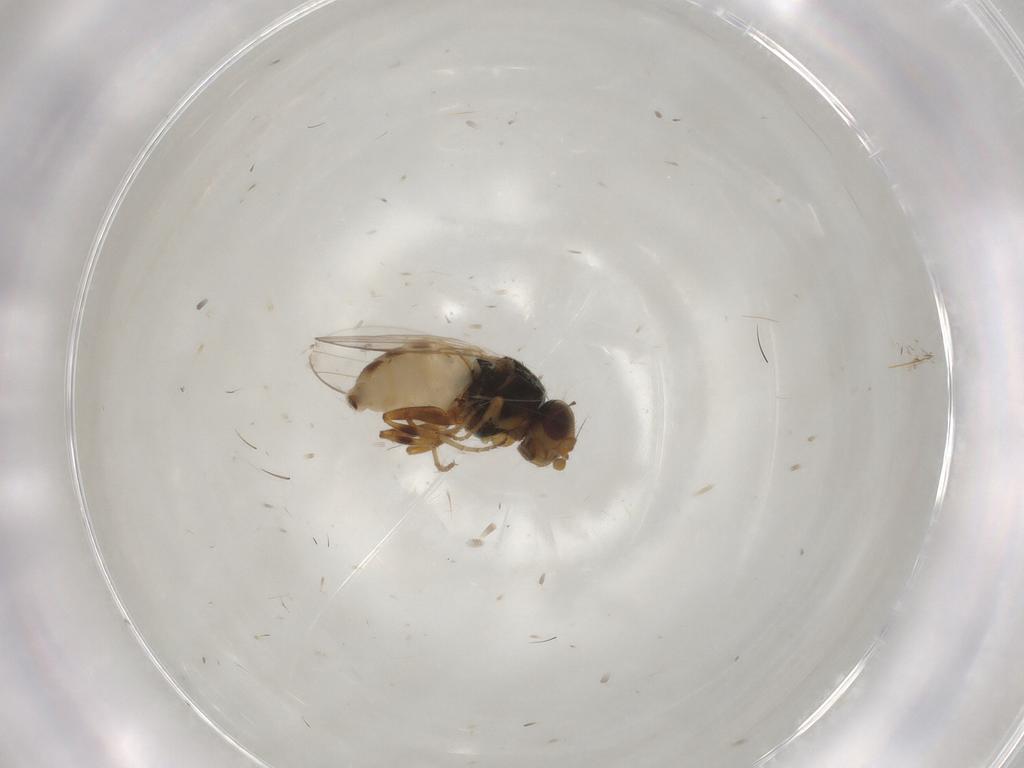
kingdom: Animalia
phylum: Arthropoda
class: Insecta
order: Diptera
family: Chloropidae
